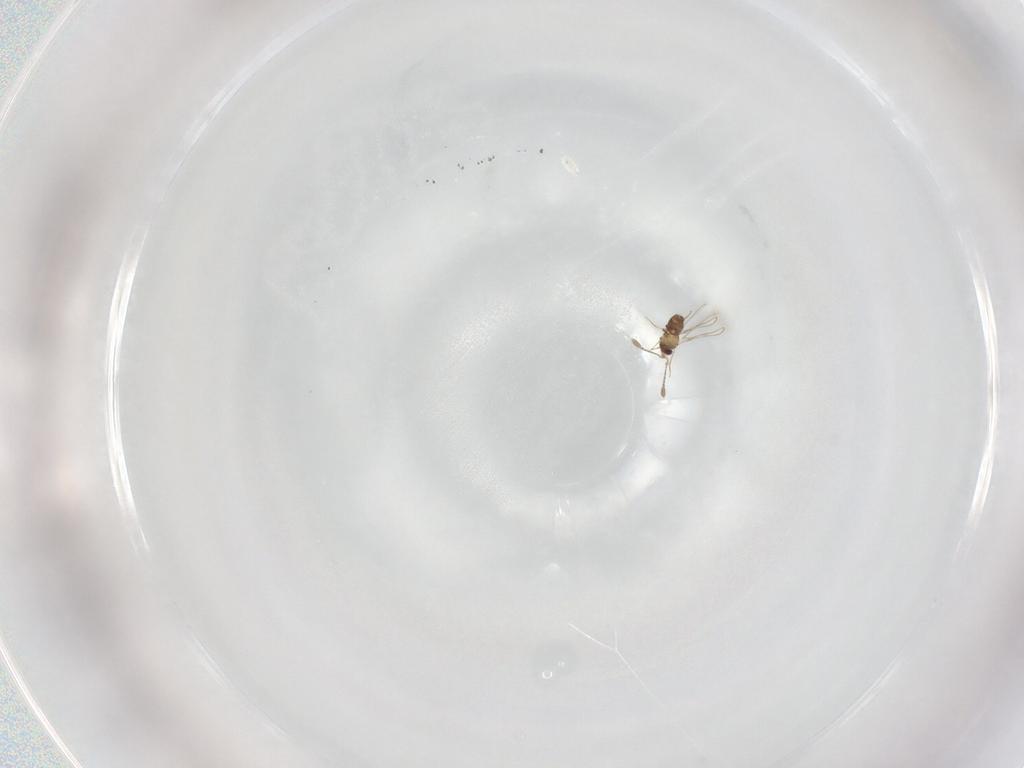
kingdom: Animalia
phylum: Arthropoda
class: Insecta
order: Hymenoptera
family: Mymaridae
